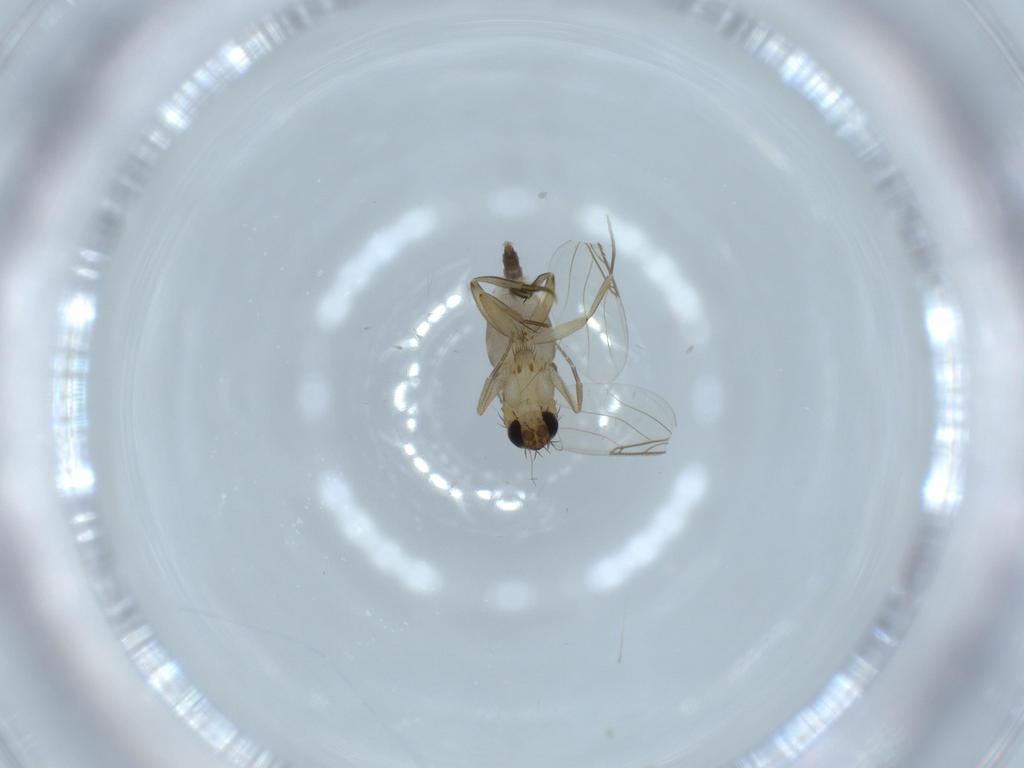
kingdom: Animalia
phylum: Arthropoda
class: Insecta
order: Diptera
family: Phoridae
